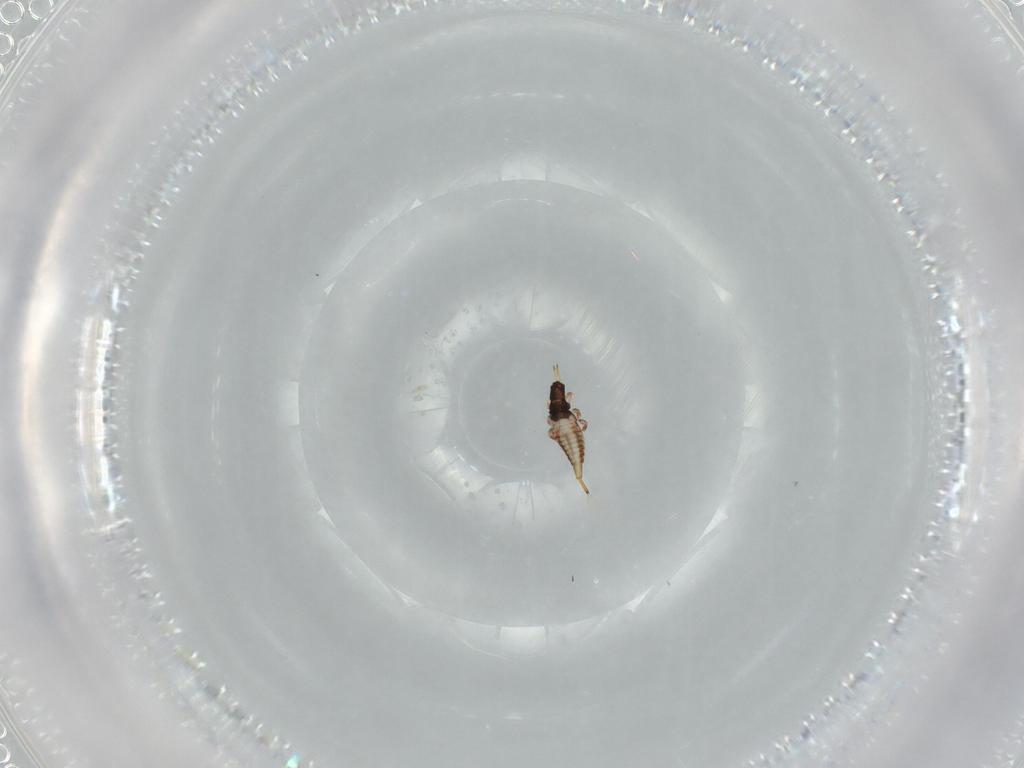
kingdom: Animalia
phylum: Arthropoda
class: Insecta
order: Thysanoptera
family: Phlaeothripidae
